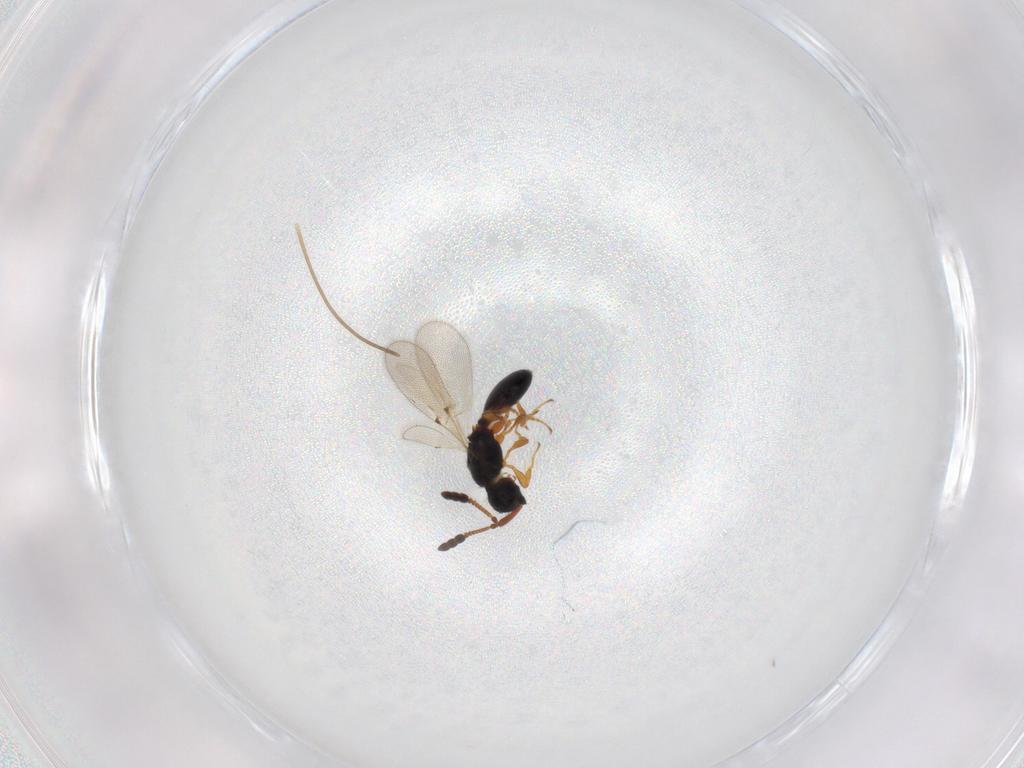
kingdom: Animalia
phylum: Arthropoda
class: Insecta
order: Hymenoptera
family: Diapriidae
